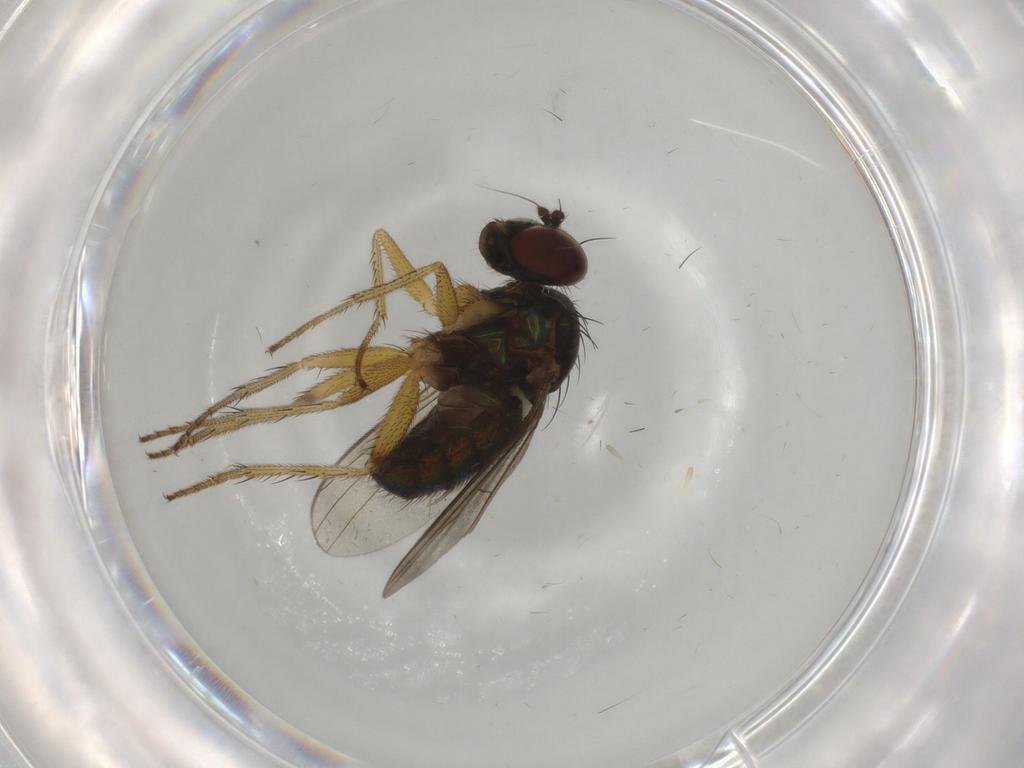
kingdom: Animalia
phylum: Arthropoda
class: Insecta
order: Diptera
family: Dolichopodidae
